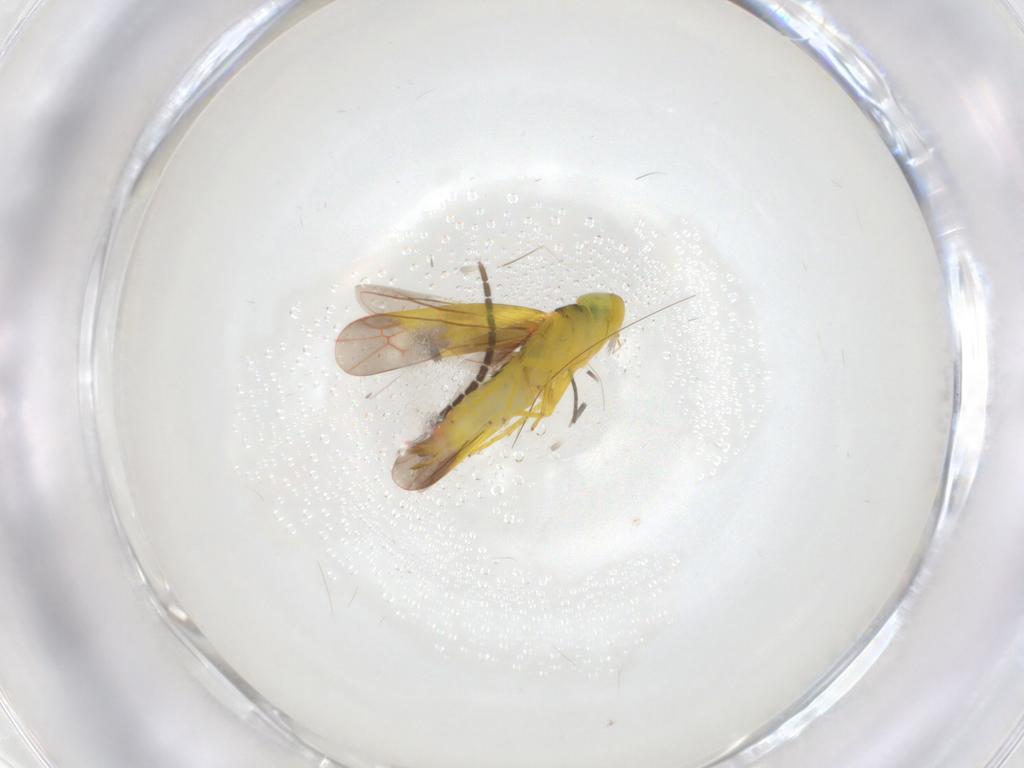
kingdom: Animalia
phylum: Arthropoda
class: Insecta
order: Hemiptera
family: Cicadellidae
